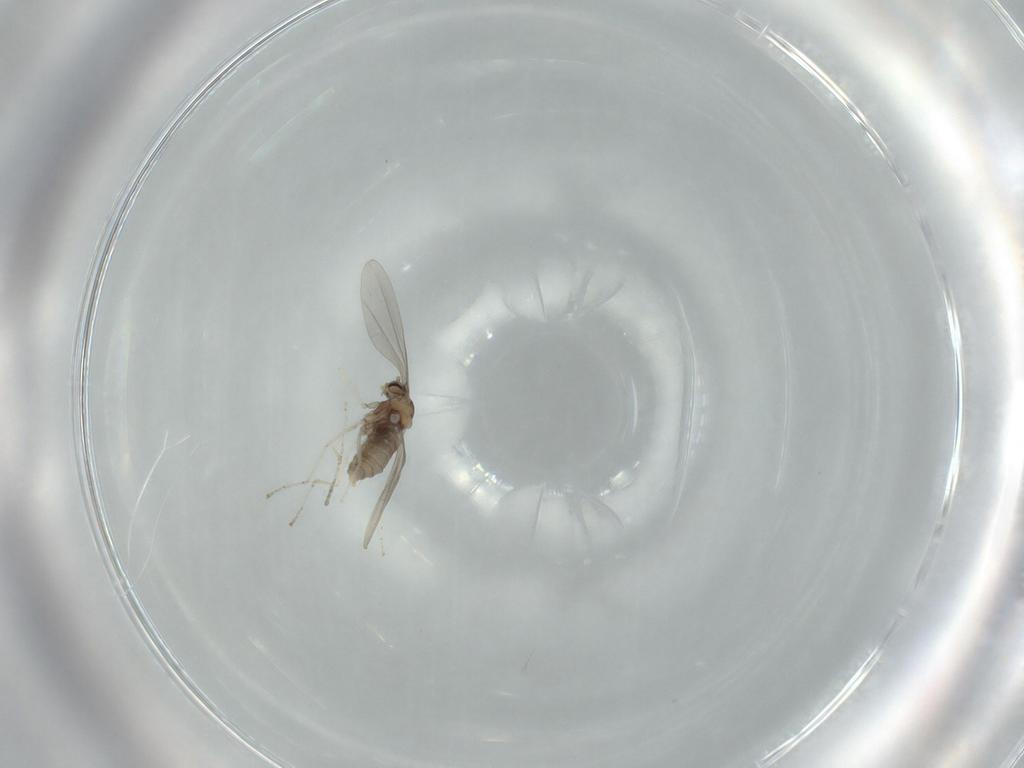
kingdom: Animalia
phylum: Arthropoda
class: Insecta
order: Diptera
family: Cecidomyiidae
